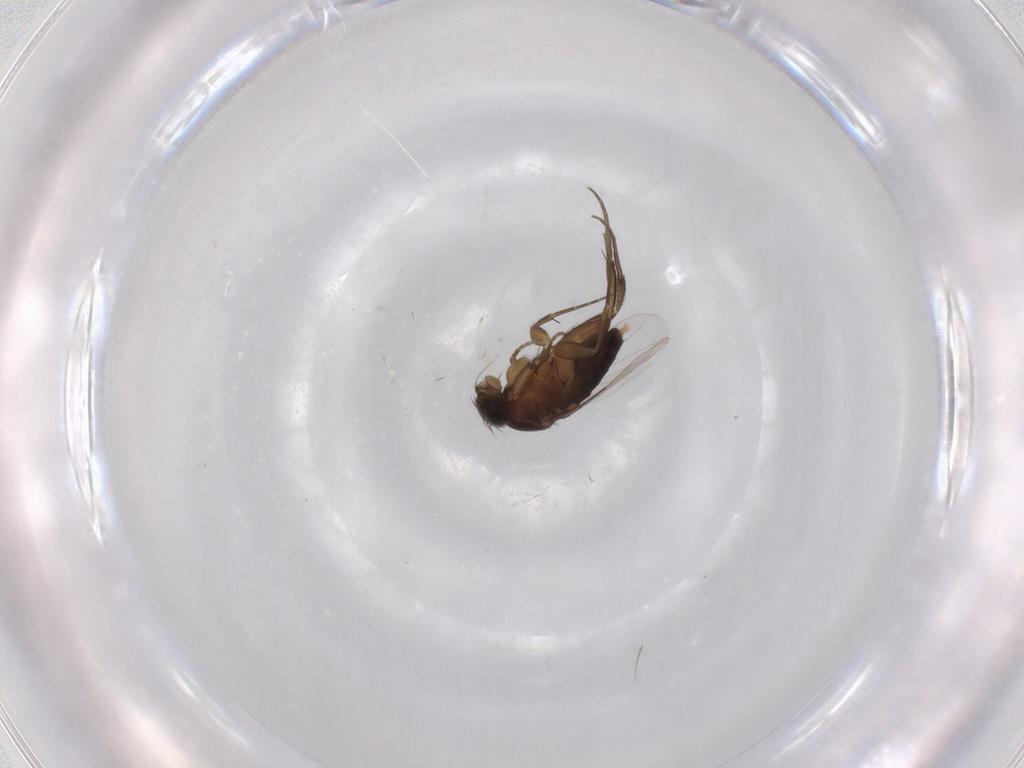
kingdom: Animalia
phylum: Arthropoda
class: Insecta
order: Diptera
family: Phoridae
